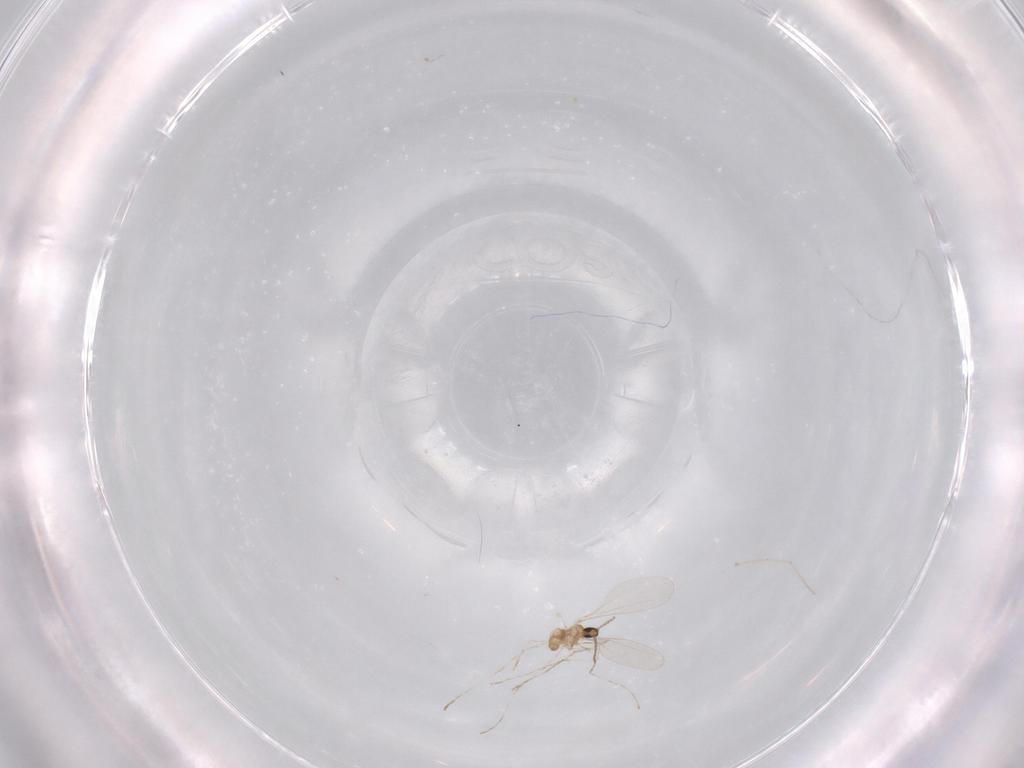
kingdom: Animalia
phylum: Arthropoda
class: Insecta
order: Diptera
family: Cecidomyiidae
